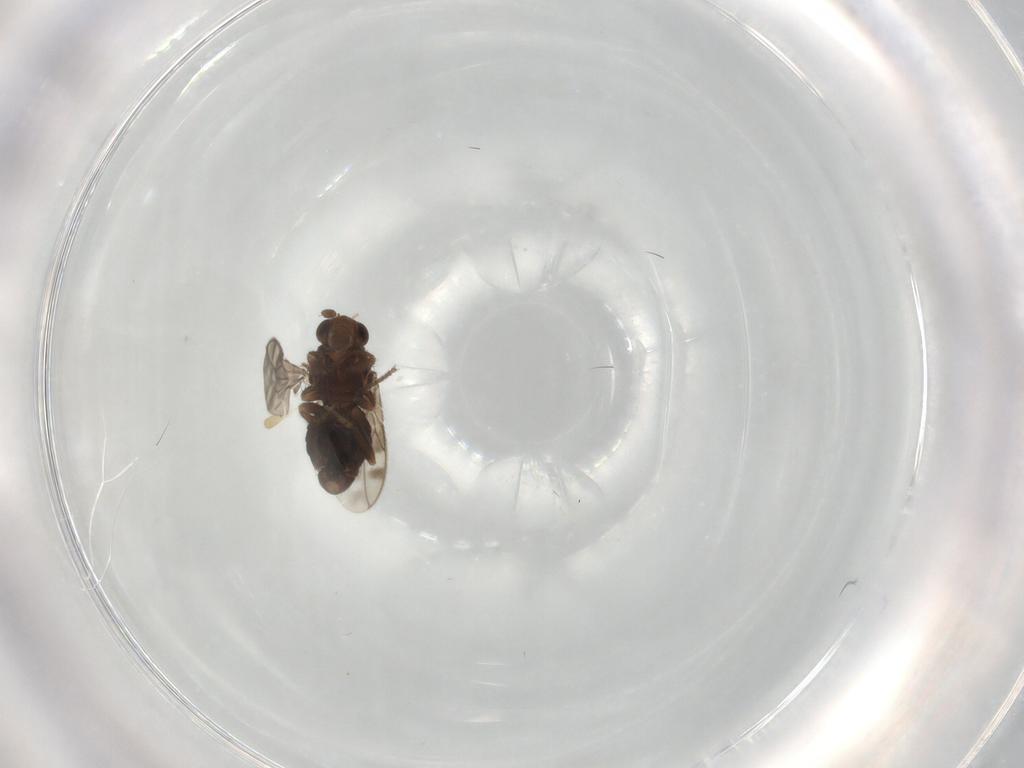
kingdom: Animalia
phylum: Arthropoda
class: Insecta
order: Diptera
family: Sphaeroceridae
